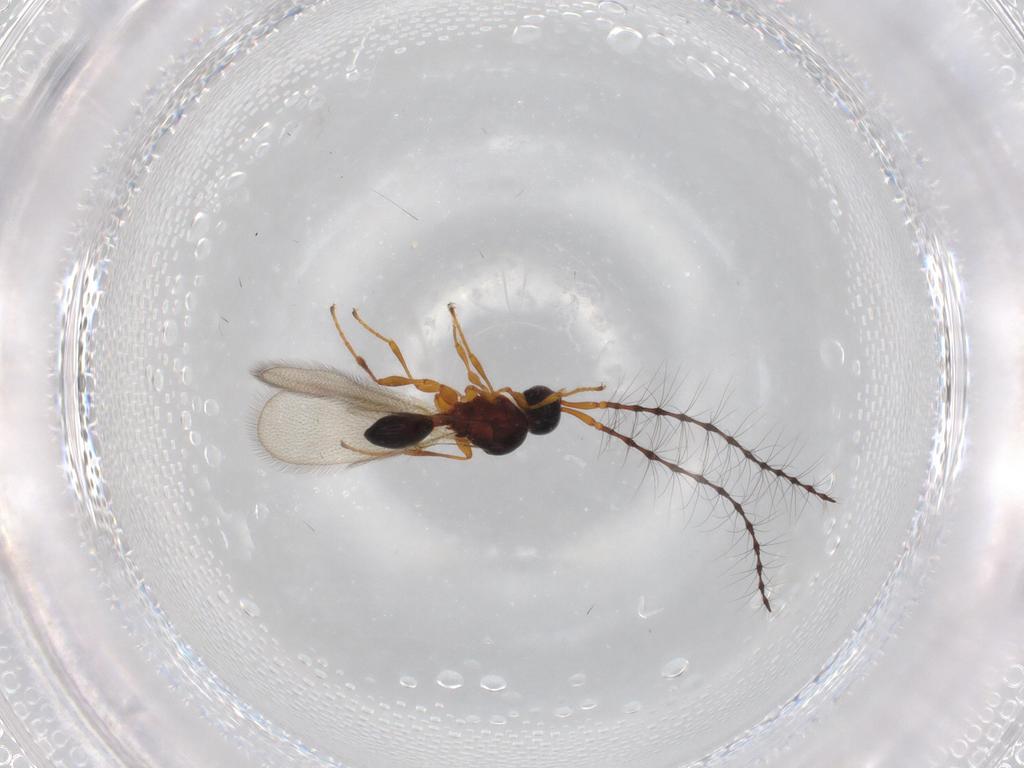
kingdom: Animalia
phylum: Arthropoda
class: Insecta
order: Hymenoptera
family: Diapriidae
